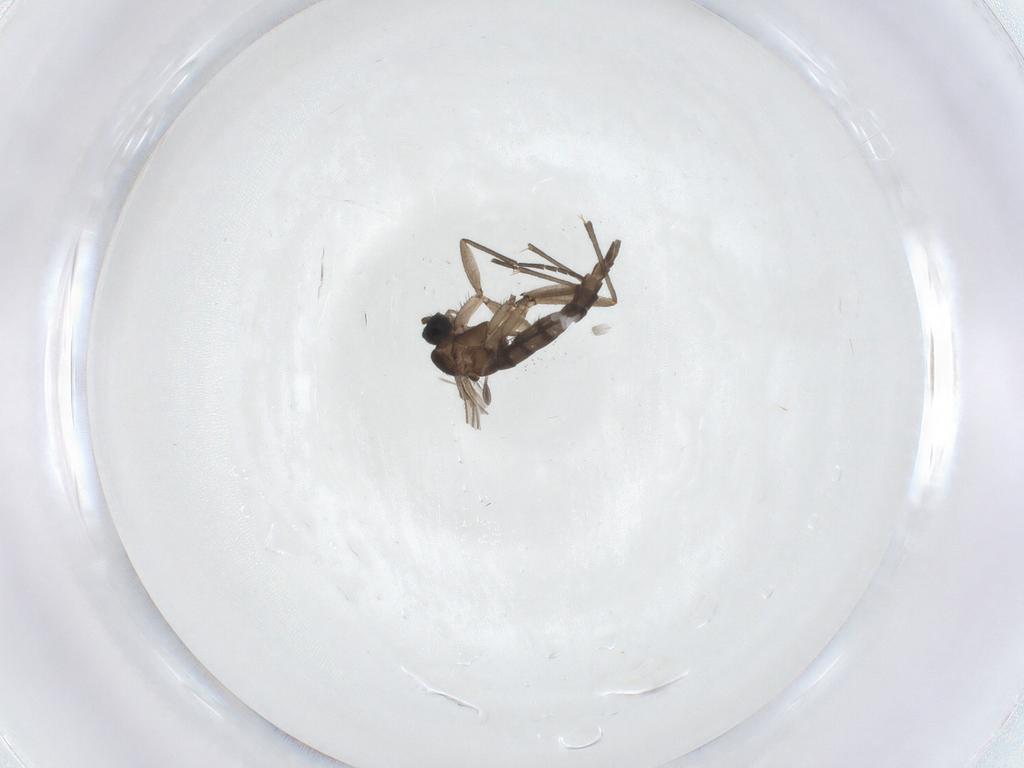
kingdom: Animalia
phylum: Arthropoda
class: Insecta
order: Diptera
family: Sciaridae
